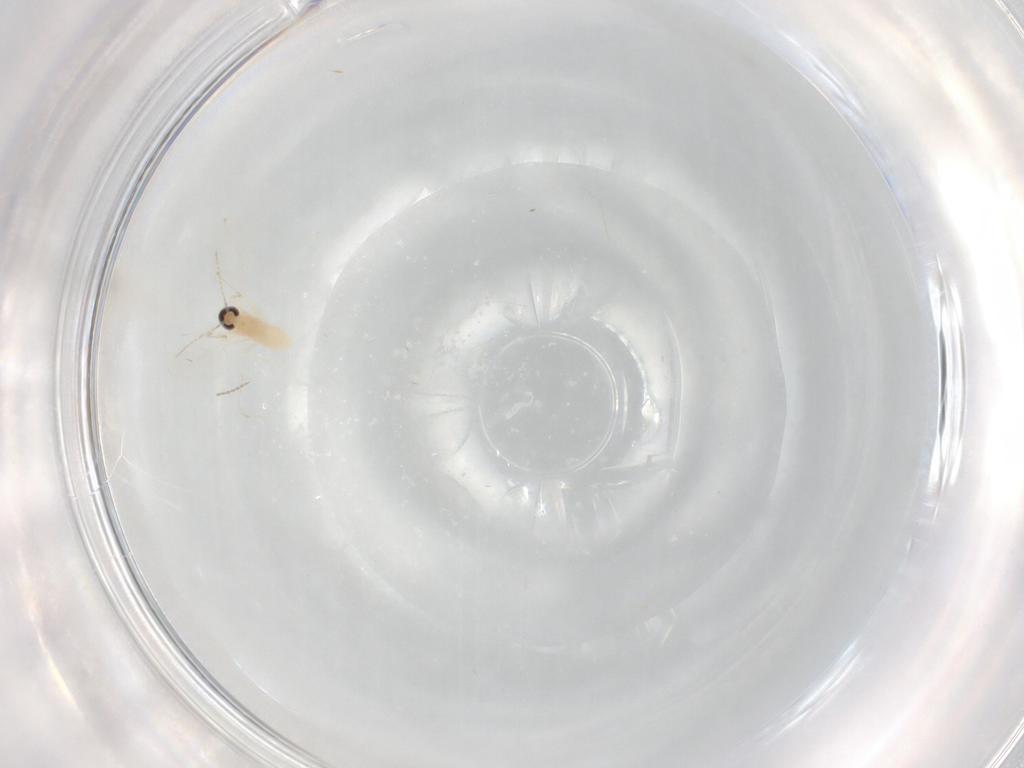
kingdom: Animalia
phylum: Arthropoda
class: Insecta
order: Diptera
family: Cecidomyiidae
